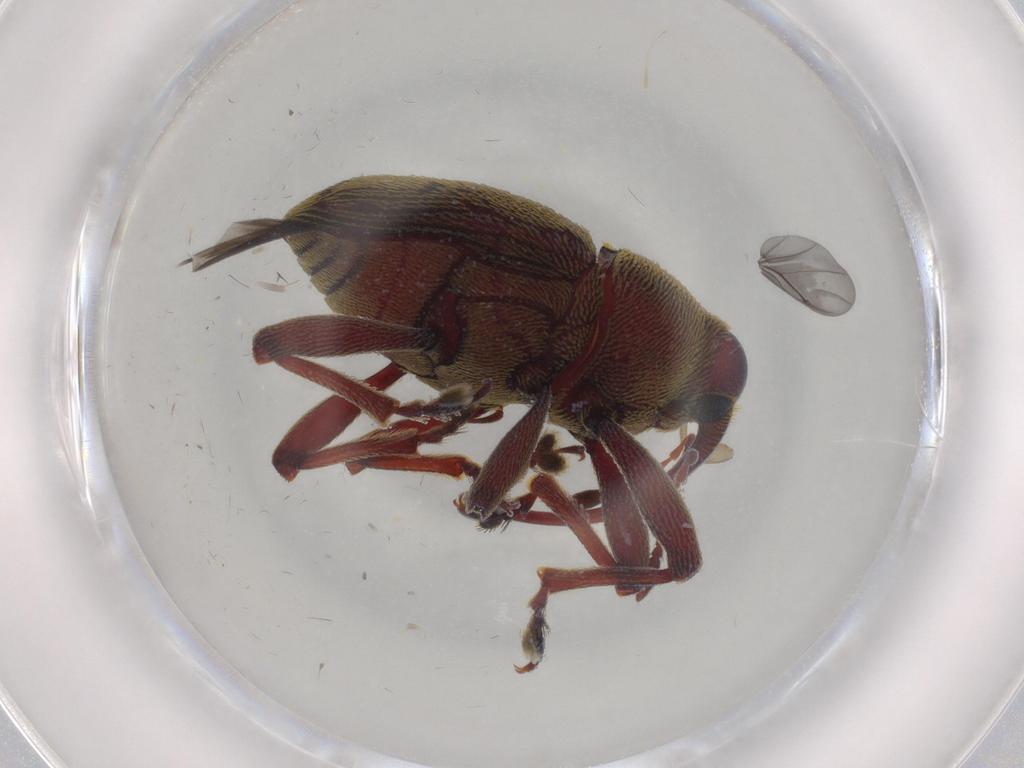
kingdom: Animalia
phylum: Arthropoda
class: Insecta
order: Coleoptera
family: Curculionidae
